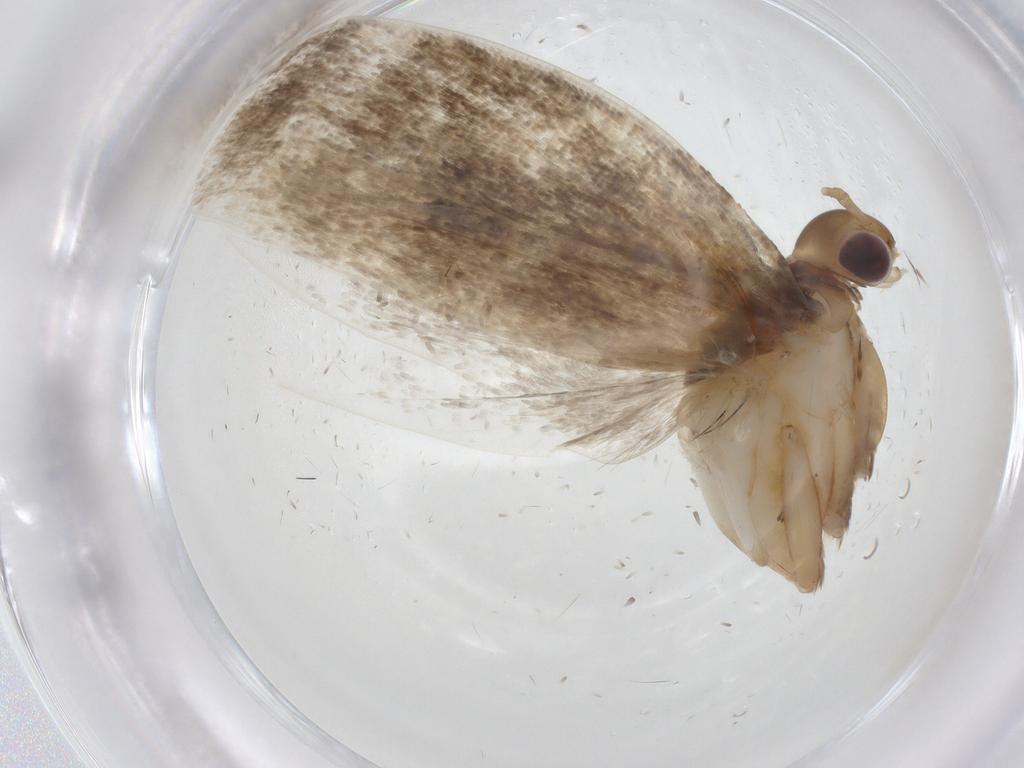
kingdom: Animalia
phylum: Arthropoda
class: Insecta
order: Lepidoptera
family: Depressariidae
